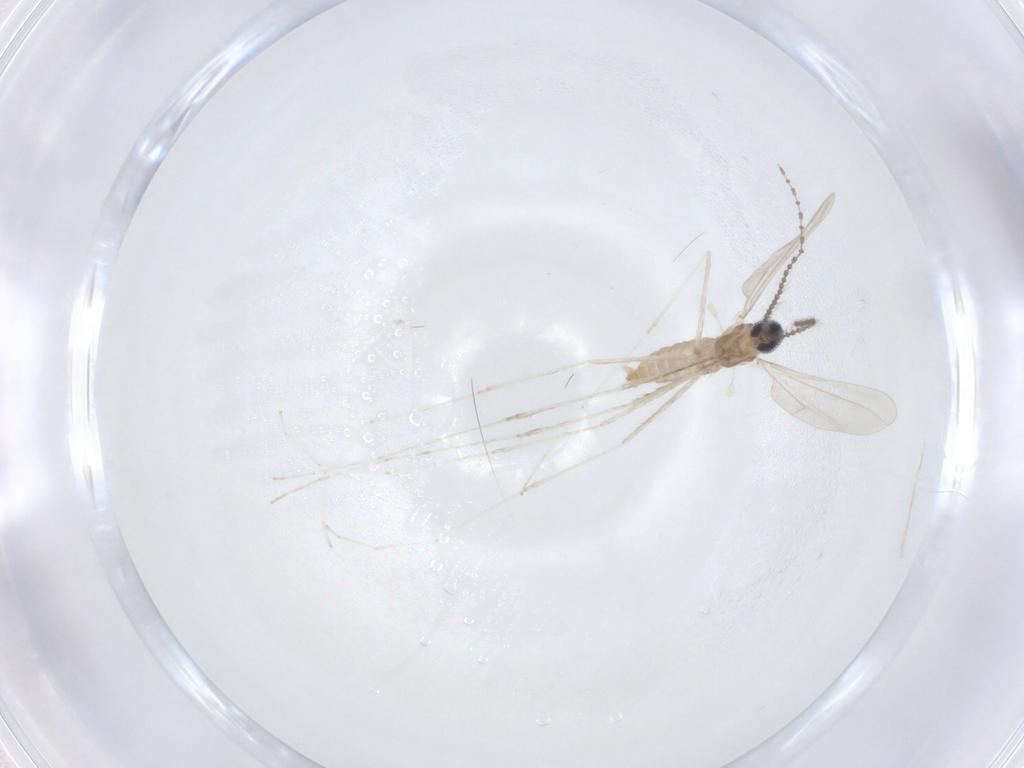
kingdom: Animalia
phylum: Arthropoda
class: Insecta
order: Diptera
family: Cecidomyiidae
